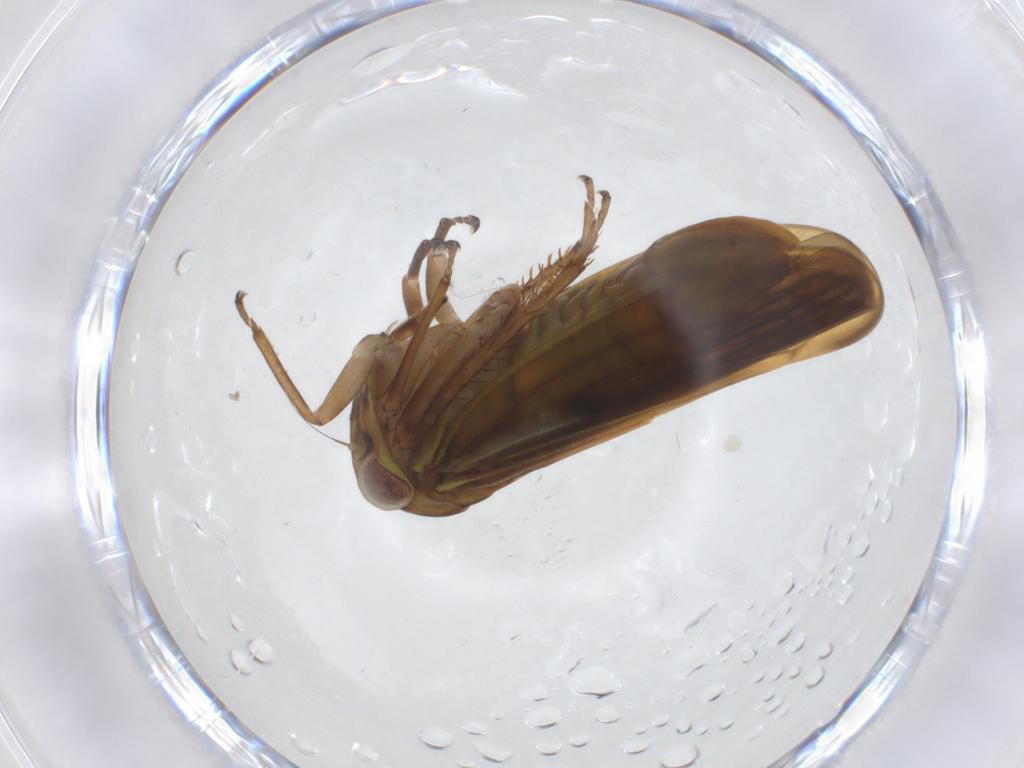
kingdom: Animalia
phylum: Arthropoda
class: Insecta
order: Hemiptera
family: Cicadellidae
